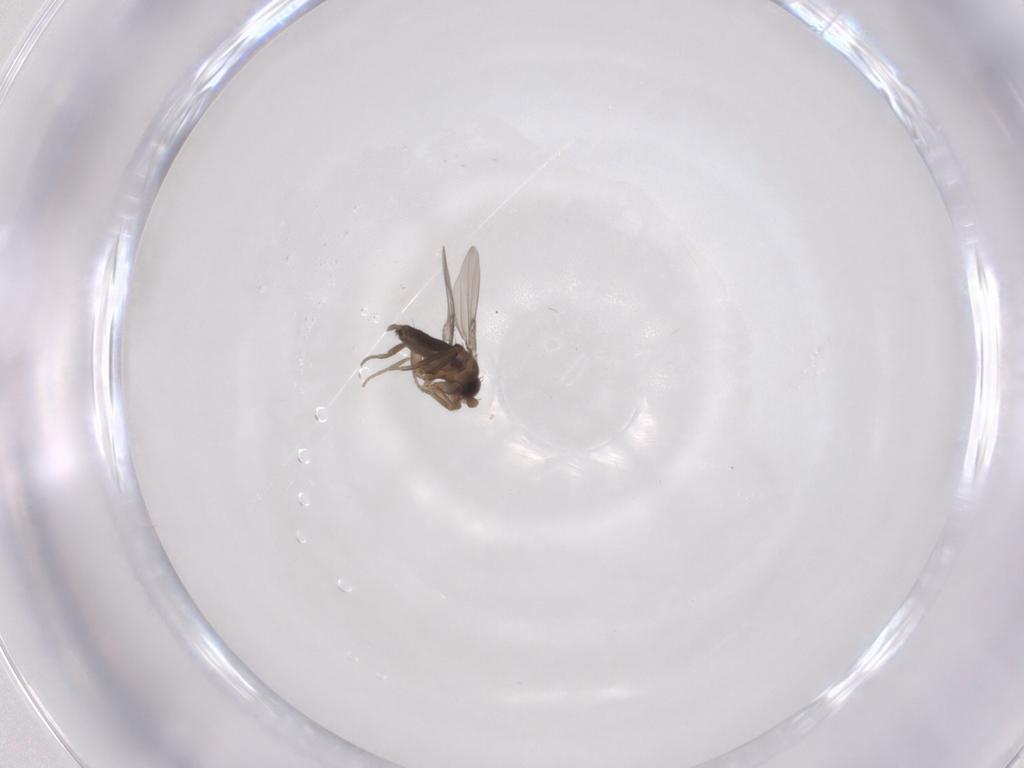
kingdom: Animalia
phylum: Arthropoda
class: Insecta
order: Diptera
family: Phoridae
